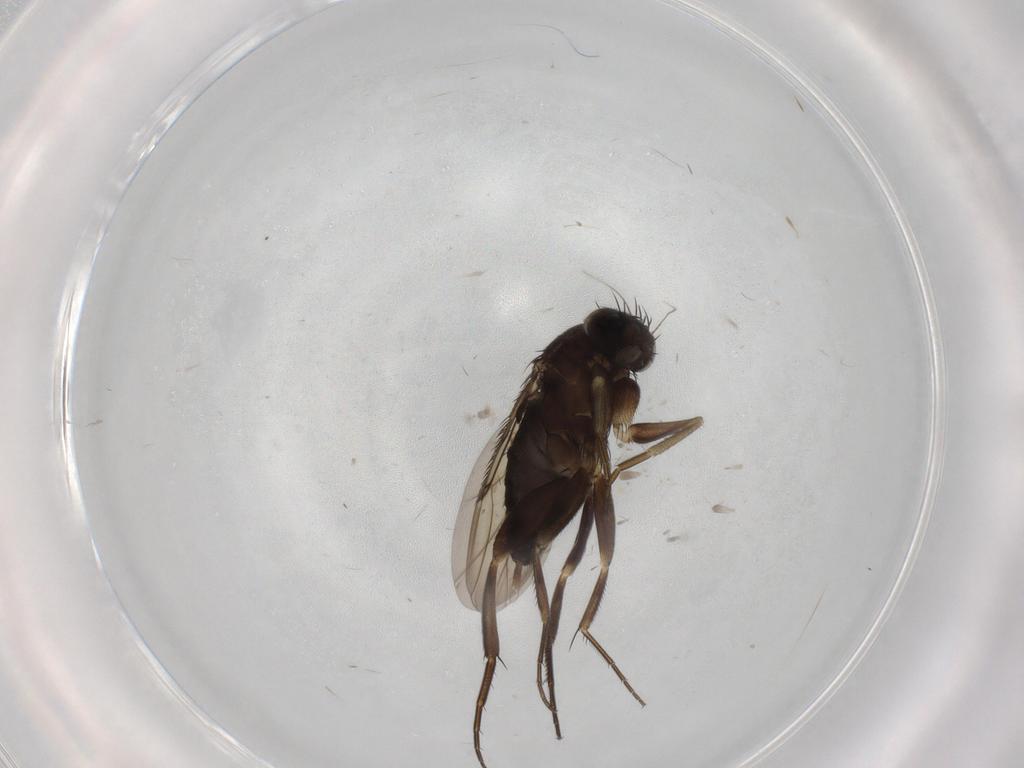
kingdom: Animalia
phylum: Arthropoda
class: Insecta
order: Diptera
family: Phoridae
